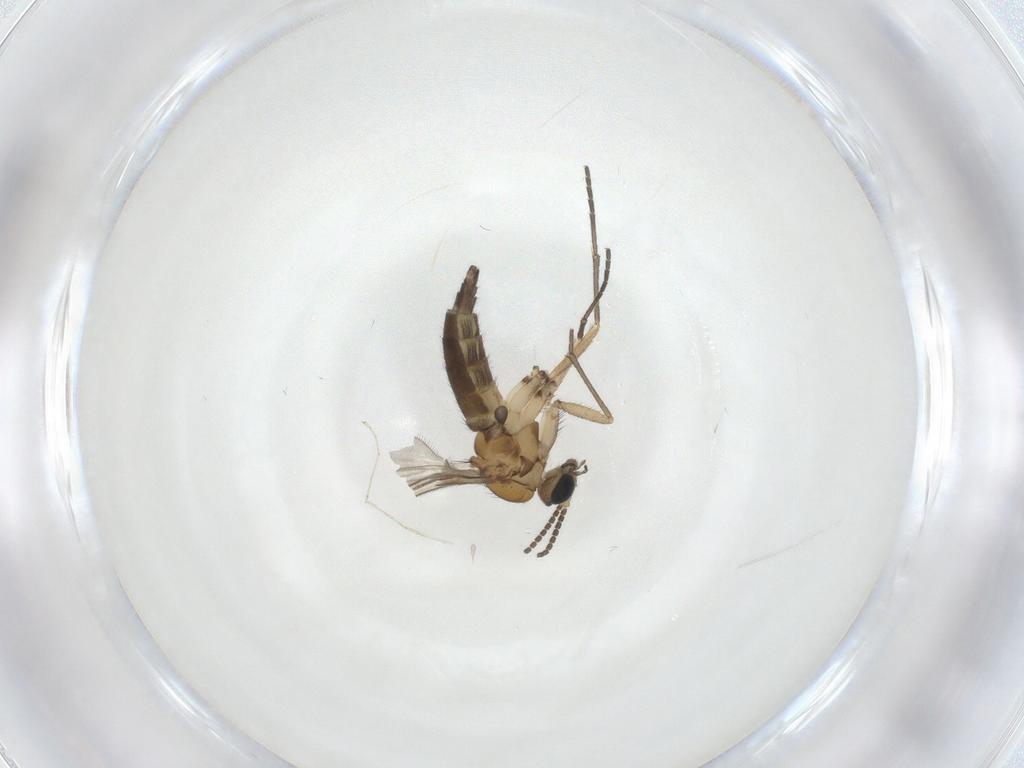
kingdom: Animalia
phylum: Arthropoda
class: Insecta
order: Diptera
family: Sciaridae
